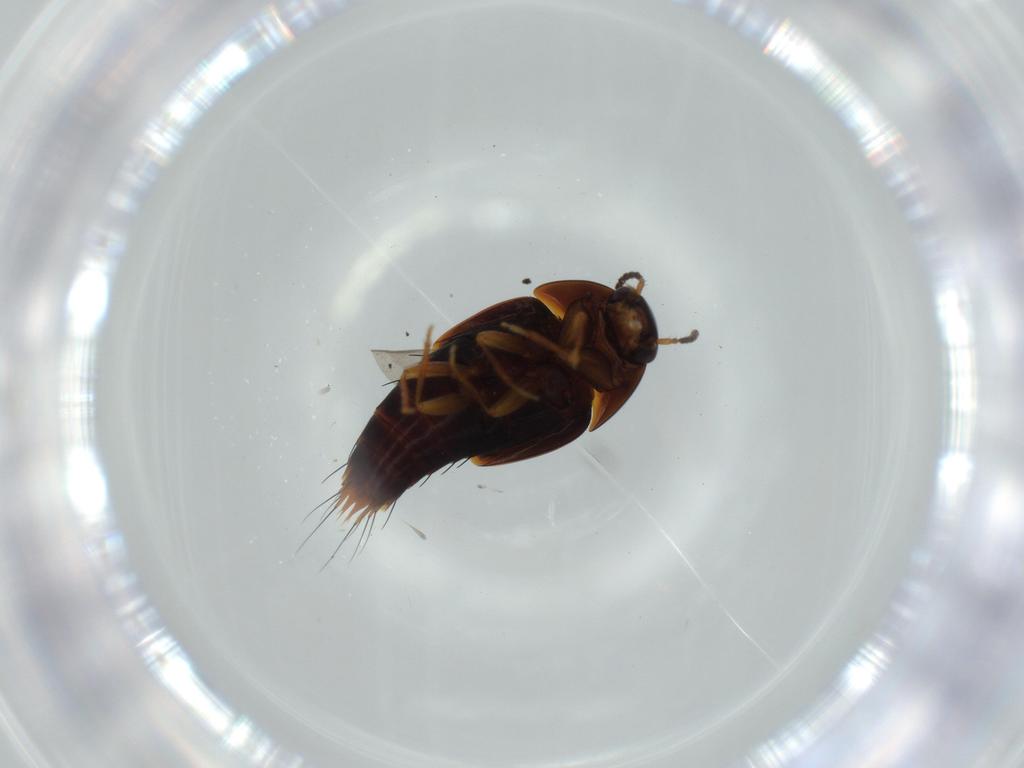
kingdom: Animalia
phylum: Arthropoda
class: Insecta
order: Coleoptera
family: Staphylinidae
